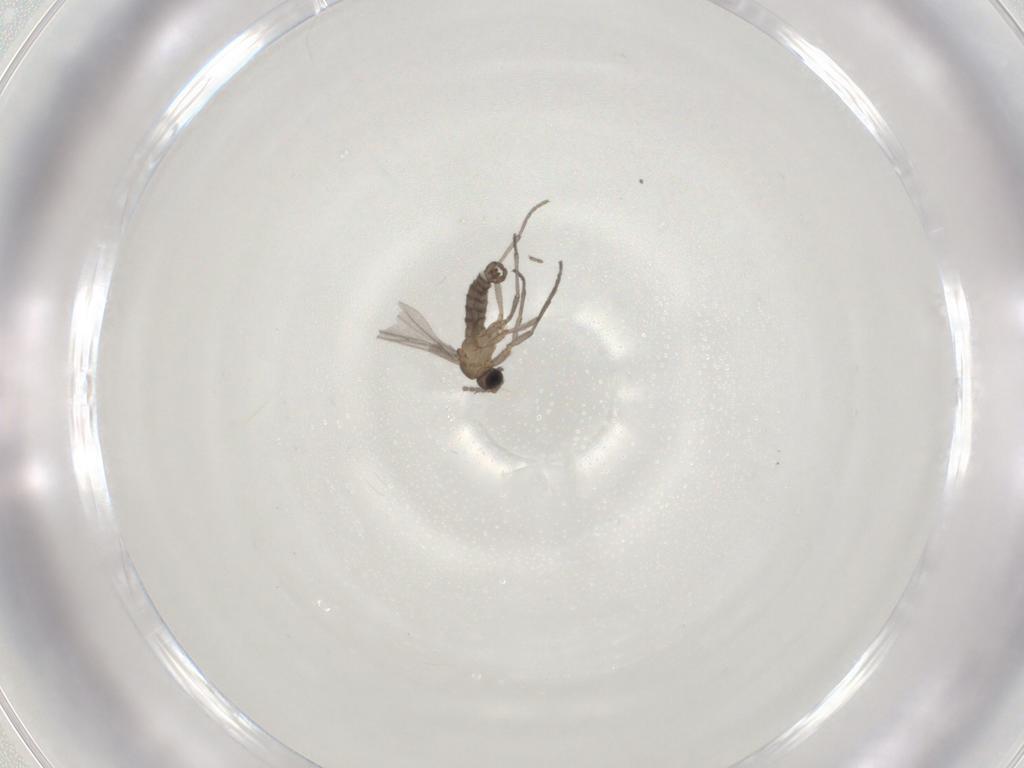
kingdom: Animalia
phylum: Arthropoda
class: Insecta
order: Diptera
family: Sciaridae
